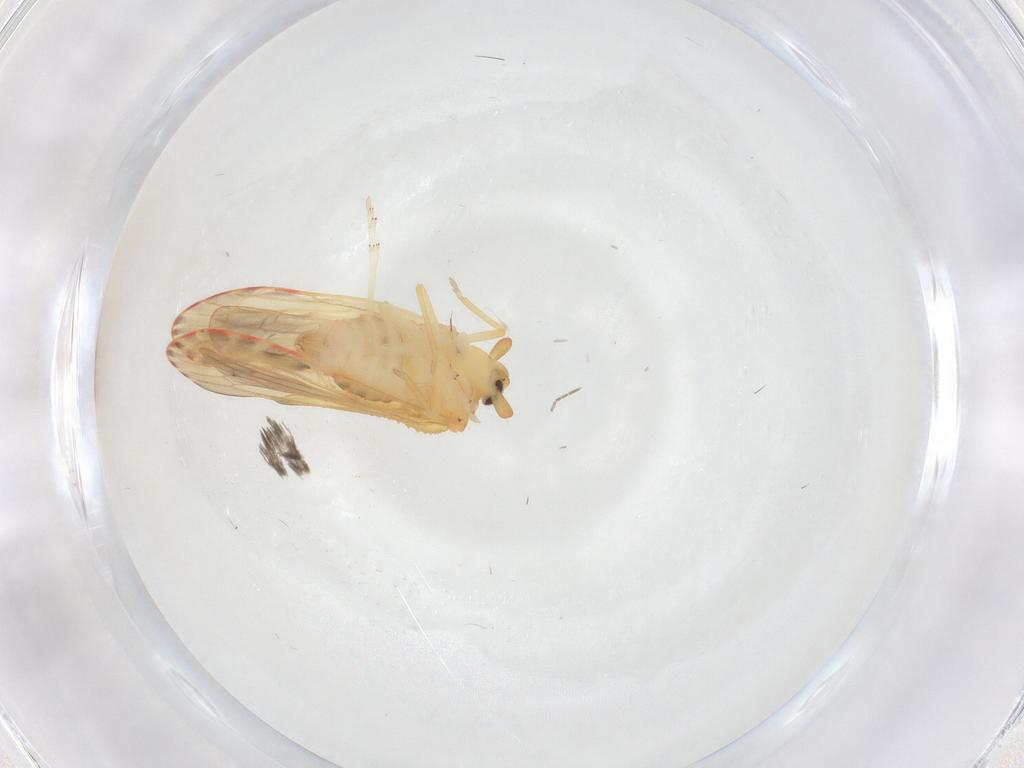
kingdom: Animalia
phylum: Arthropoda
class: Insecta
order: Hemiptera
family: Derbidae
